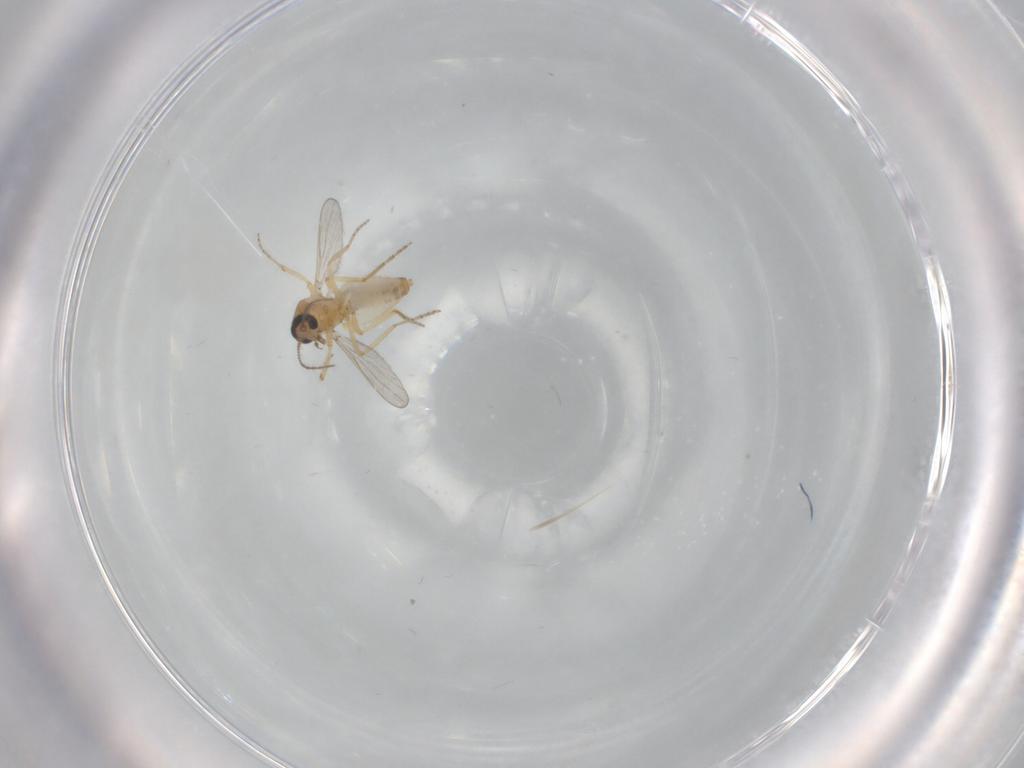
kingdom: Animalia
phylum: Arthropoda
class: Insecta
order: Diptera
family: Ceratopogonidae
